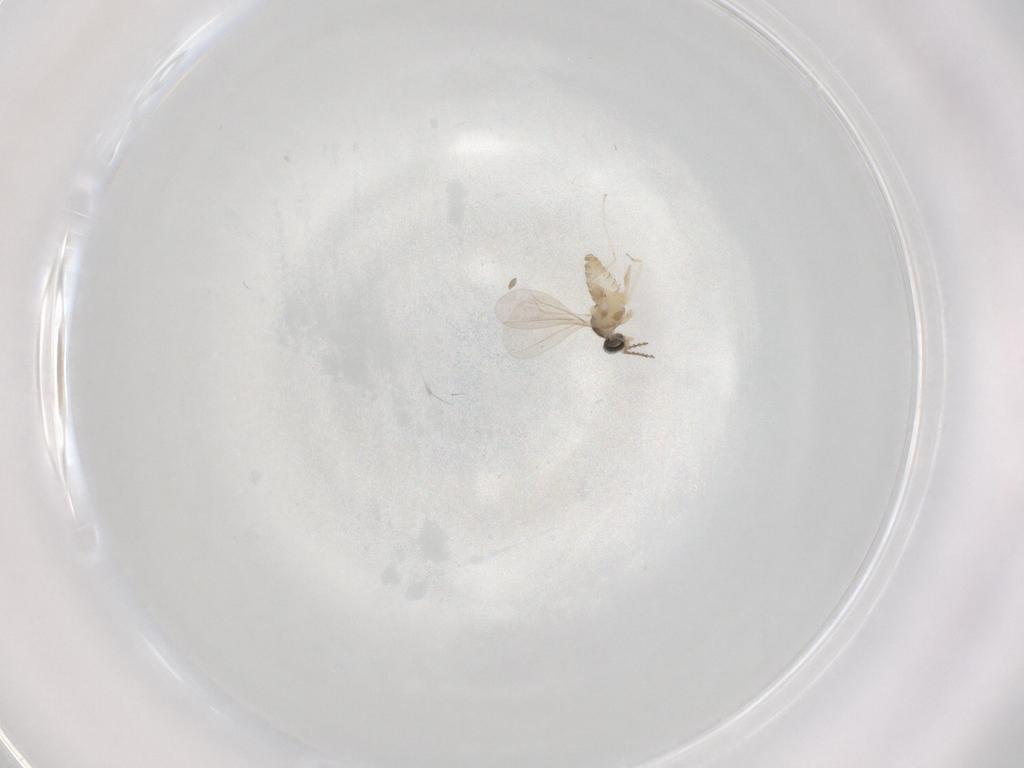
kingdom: Animalia
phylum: Arthropoda
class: Insecta
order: Diptera
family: Cecidomyiidae
